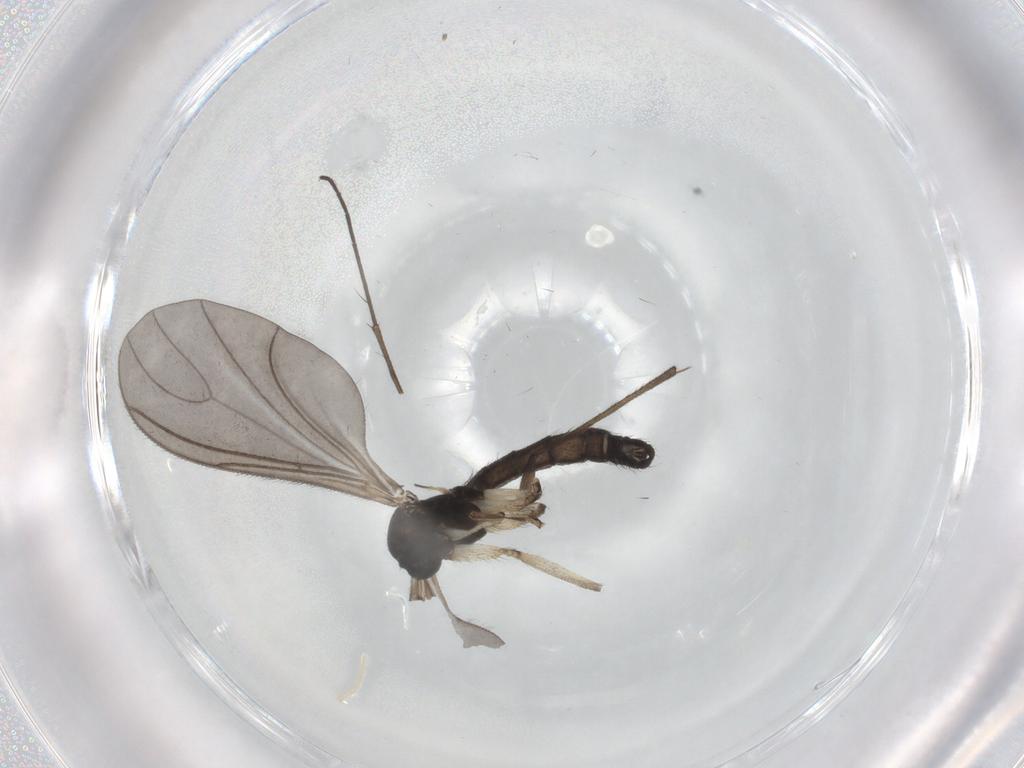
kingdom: Animalia
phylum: Arthropoda
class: Insecta
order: Diptera
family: Sciaridae
